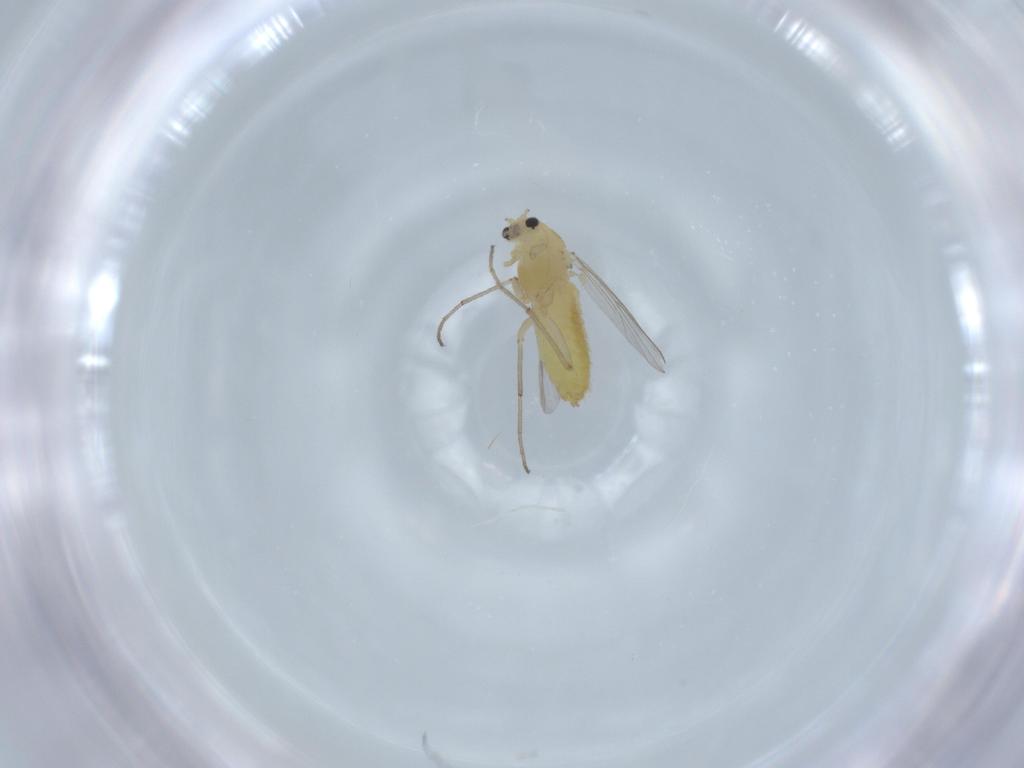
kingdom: Animalia
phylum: Arthropoda
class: Insecta
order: Diptera
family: Chironomidae
